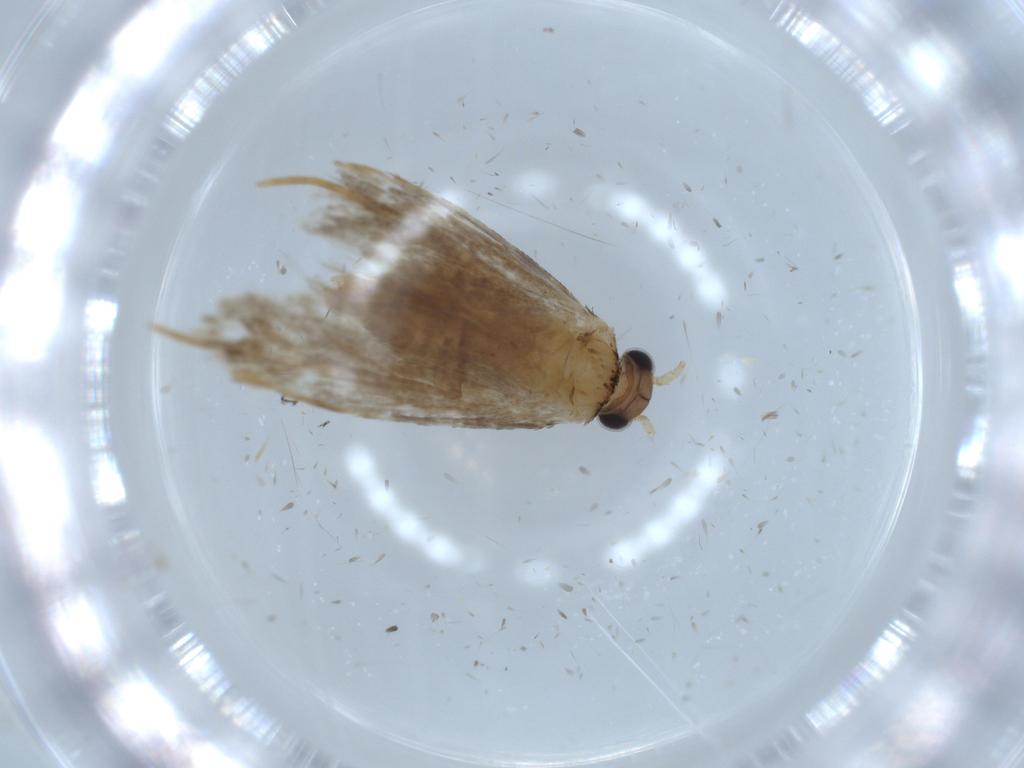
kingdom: Animalia
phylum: Arthropoda
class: Insecta
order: Lepidoptera
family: Tineidae
